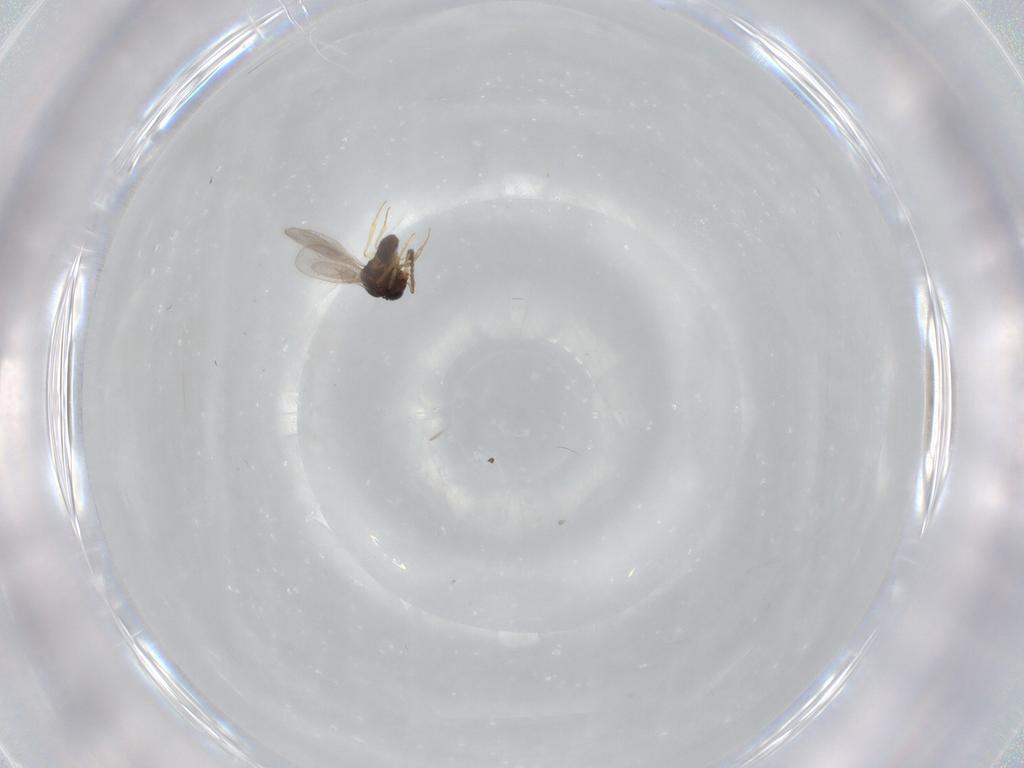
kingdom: Animalia
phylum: Arthropoda
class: Insecta
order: Hymenoptera
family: Scelionidae
